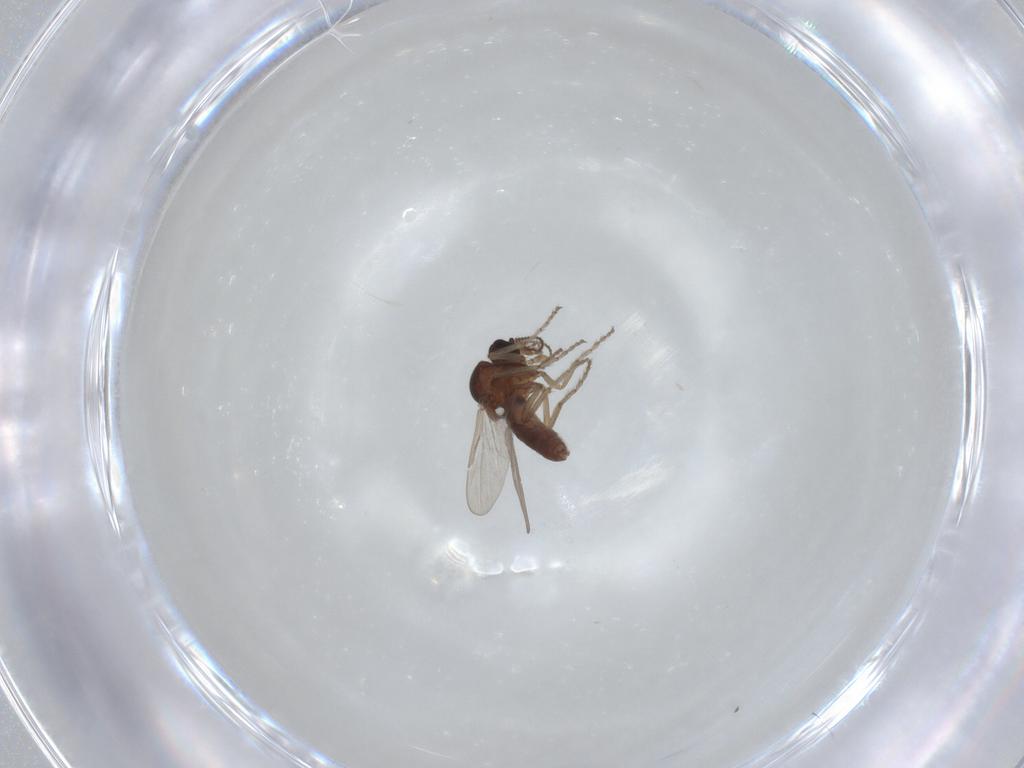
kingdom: Animalia
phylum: Arthropoda
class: Insecta
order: Diptera
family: Ceratopogonidae
